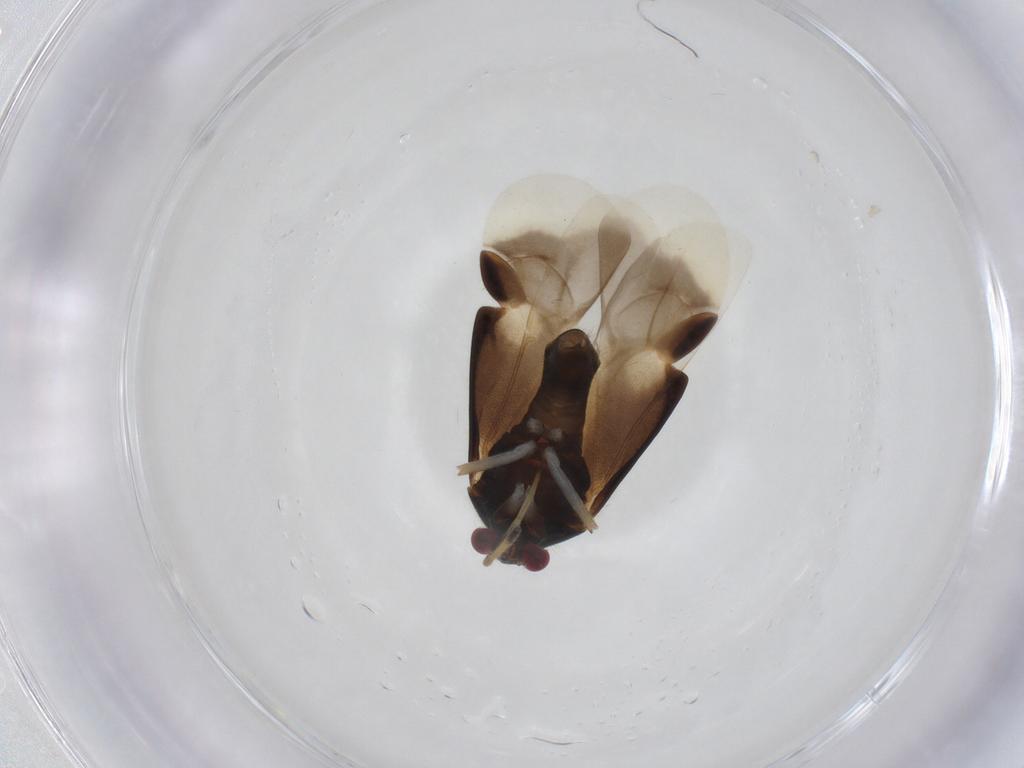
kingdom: Animalia
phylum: Arthropoda
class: Insecta
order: Hemiptera
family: Miridae
